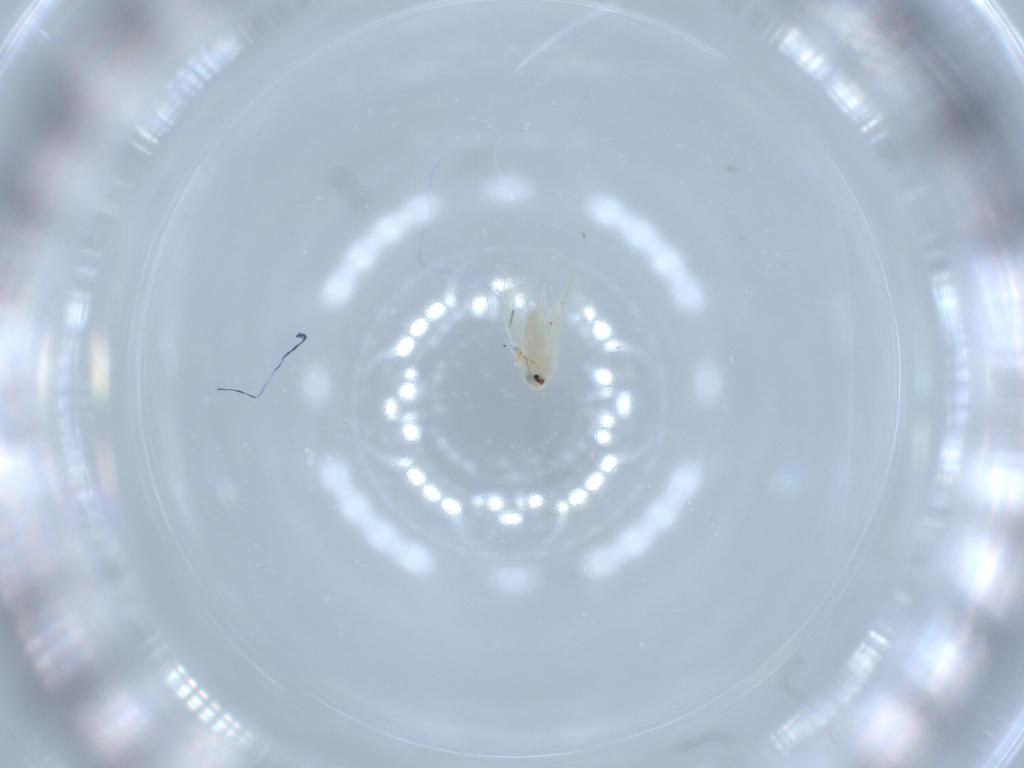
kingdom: Animalia
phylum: Arthropoda
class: Insecta
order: Hemiptera
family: Aleyrodidae
